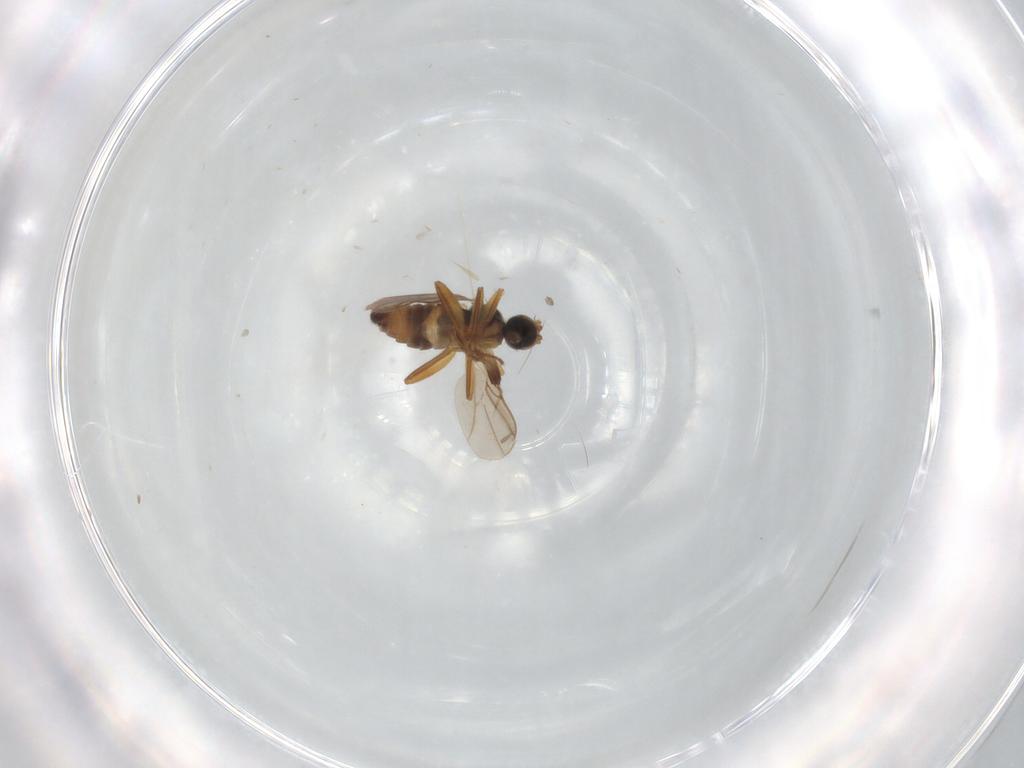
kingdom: Animalia
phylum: Arthropoda
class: Insecta
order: Diptera
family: Hybotidae
